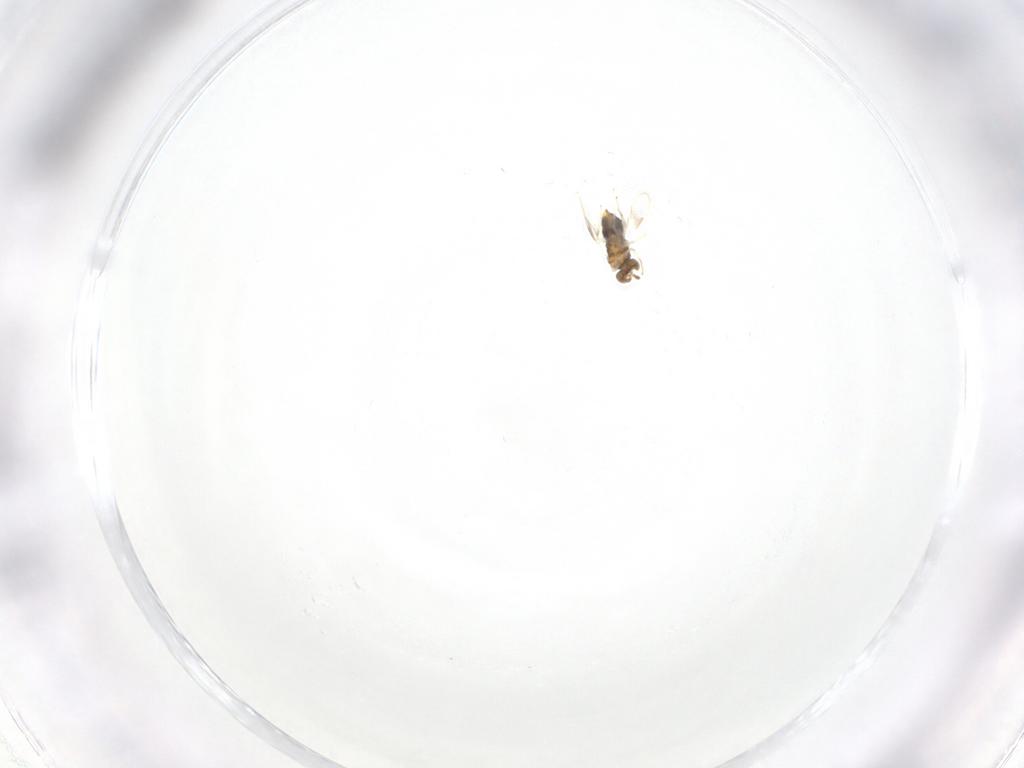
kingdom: Animalia
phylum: Arthropoda
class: Insecta
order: Hymenoptera
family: Aphelinidae
